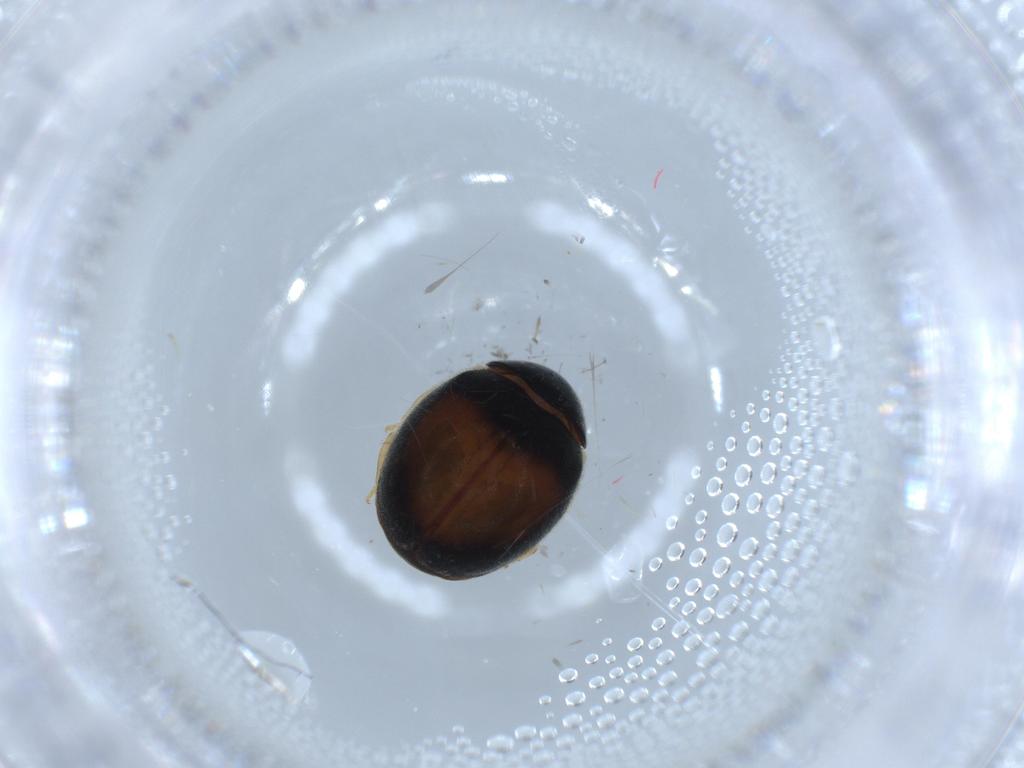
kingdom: Animalia
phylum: Arthropoda
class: Insecta
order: Coleoptera
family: Coccinellidae
